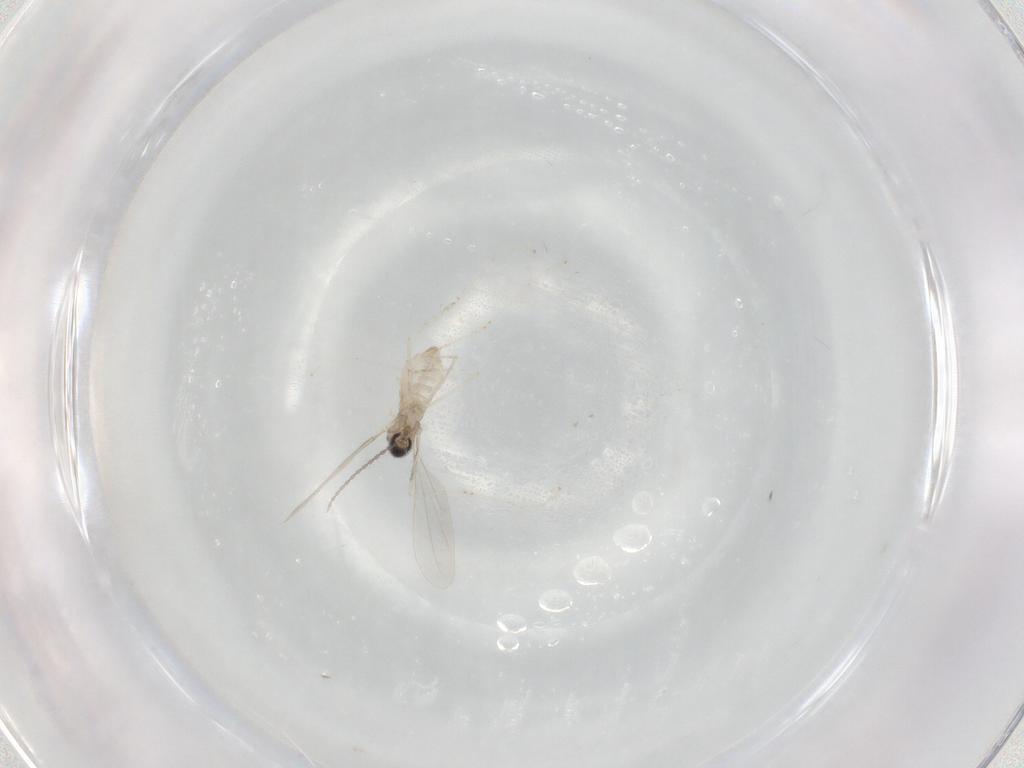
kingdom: Animalia
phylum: Arthropoda
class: Insecta
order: Diptera
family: Cecidomyiidae
